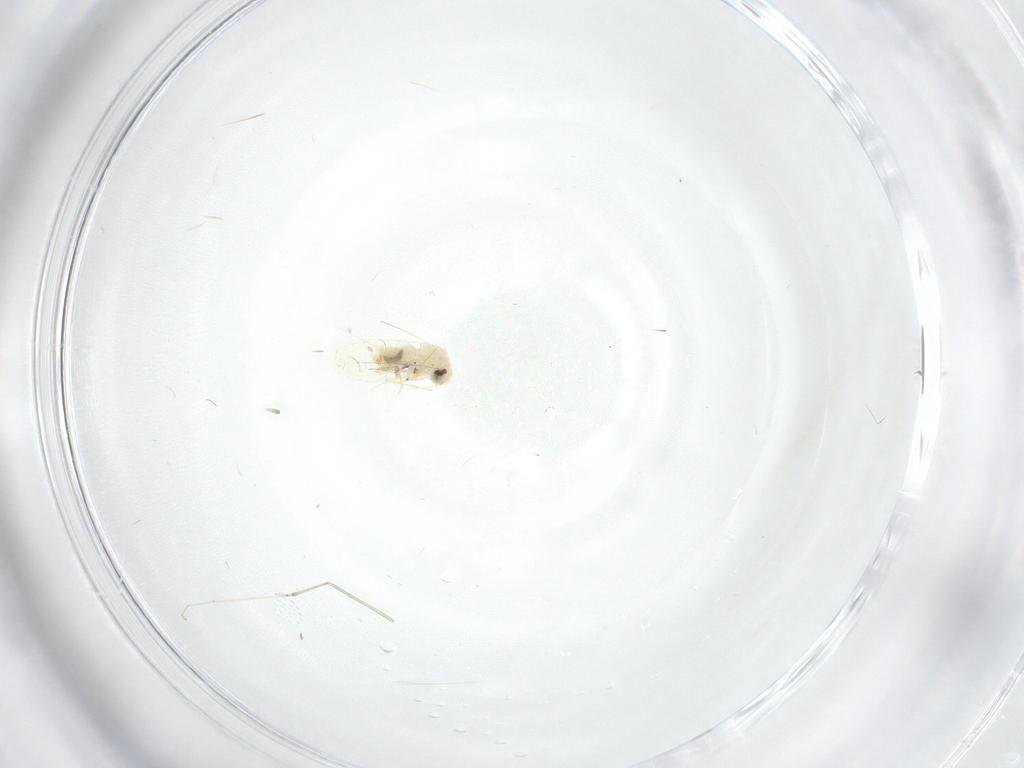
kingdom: Animalia
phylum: Arthropoda
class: Insecta
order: Hemiptera
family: Aleyrodidae
